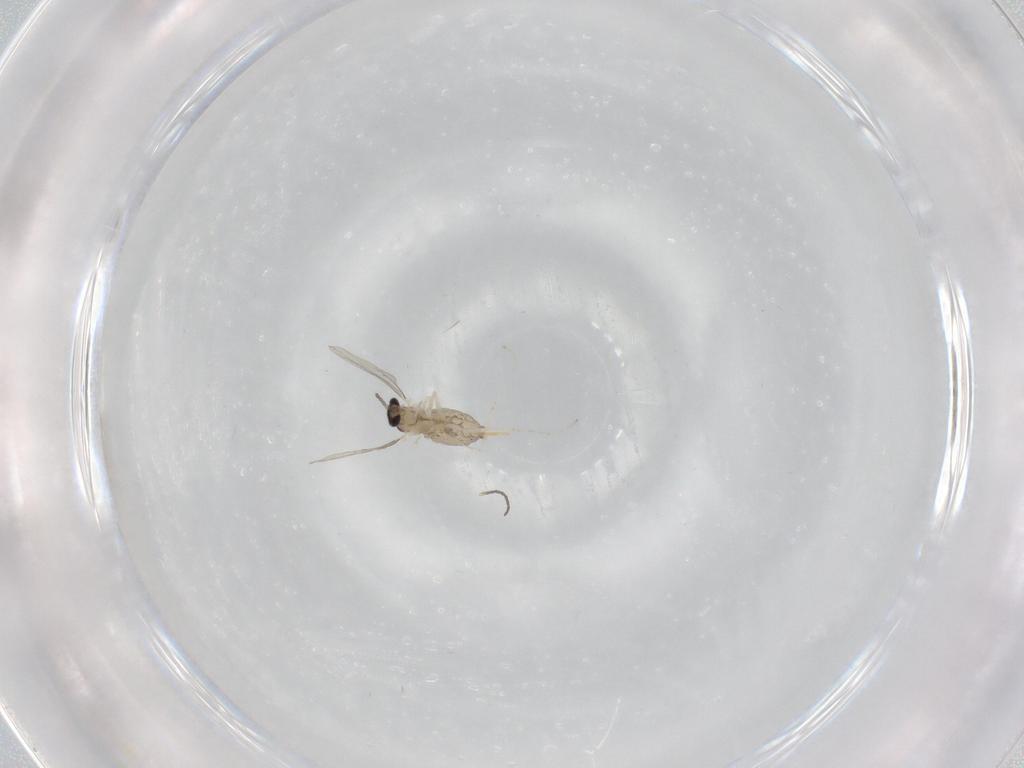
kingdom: Animalia
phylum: Arthropoda
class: Insecta
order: Diptera
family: Cecidomyiidae
